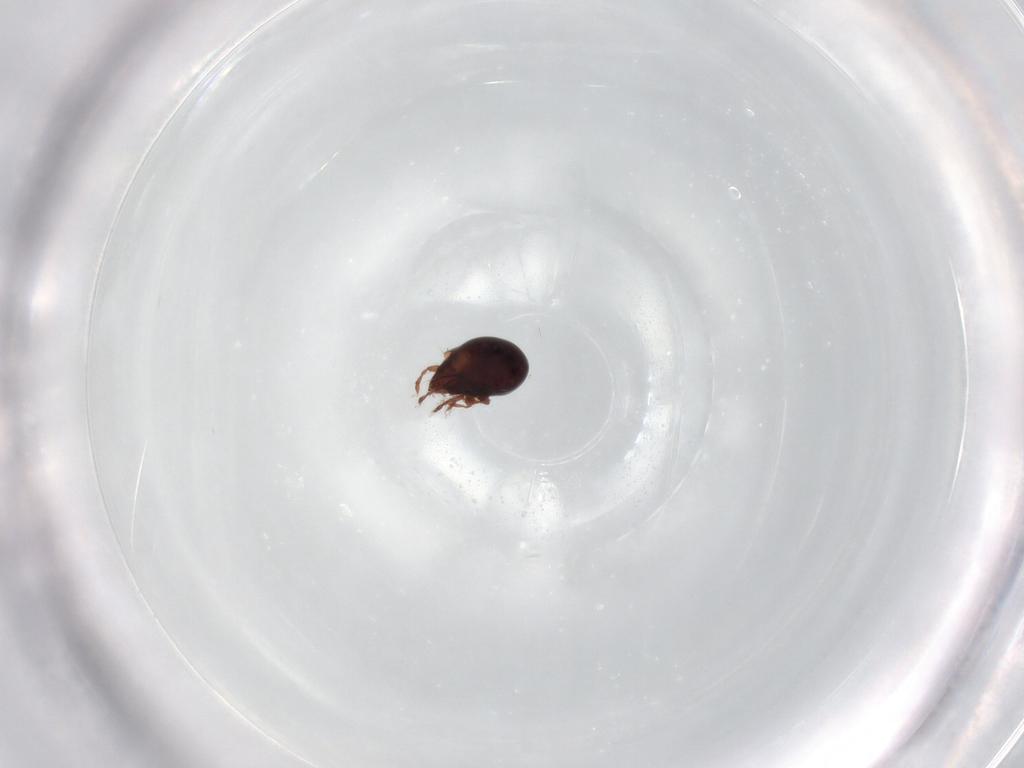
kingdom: Animalia
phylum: Arthropoda
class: Arachnida
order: Sarcoptiformes
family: Humerobatidae
